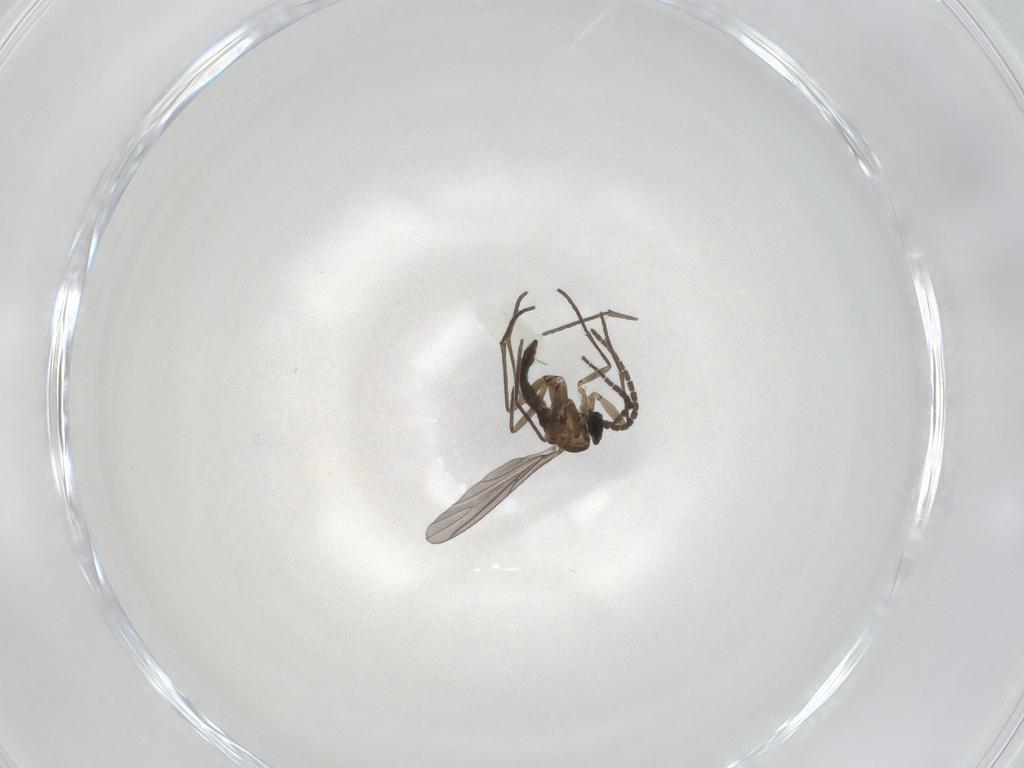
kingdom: Animalia
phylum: Arthropoda
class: Insecta
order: Diptera
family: Sciaridae
